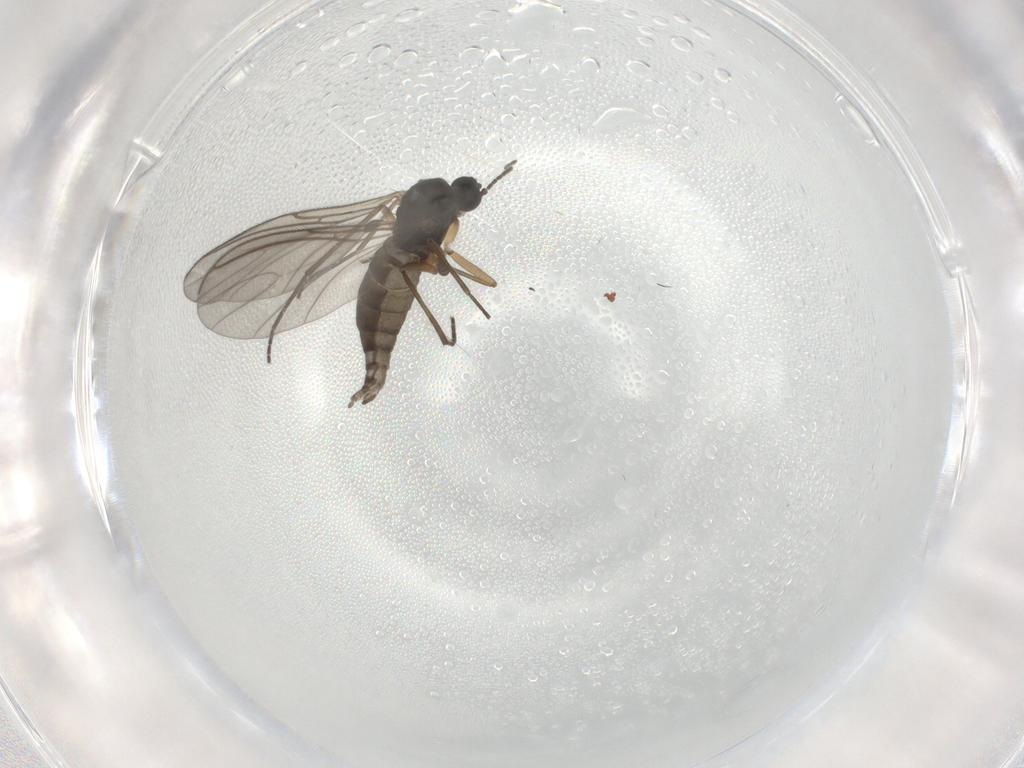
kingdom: Animalia
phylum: Arthropoda
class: Insecta
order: Diptera
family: Sciaridae
